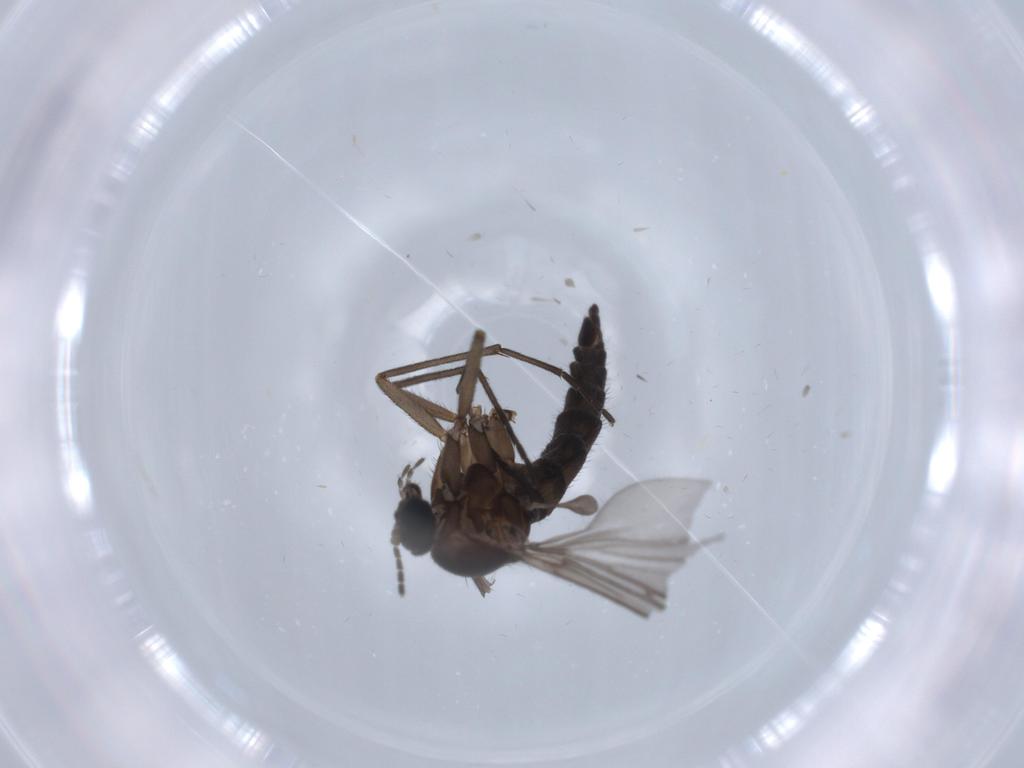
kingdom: Animalia
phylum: Arthropoda
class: Insecta
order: Diptera
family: Sciaridae
